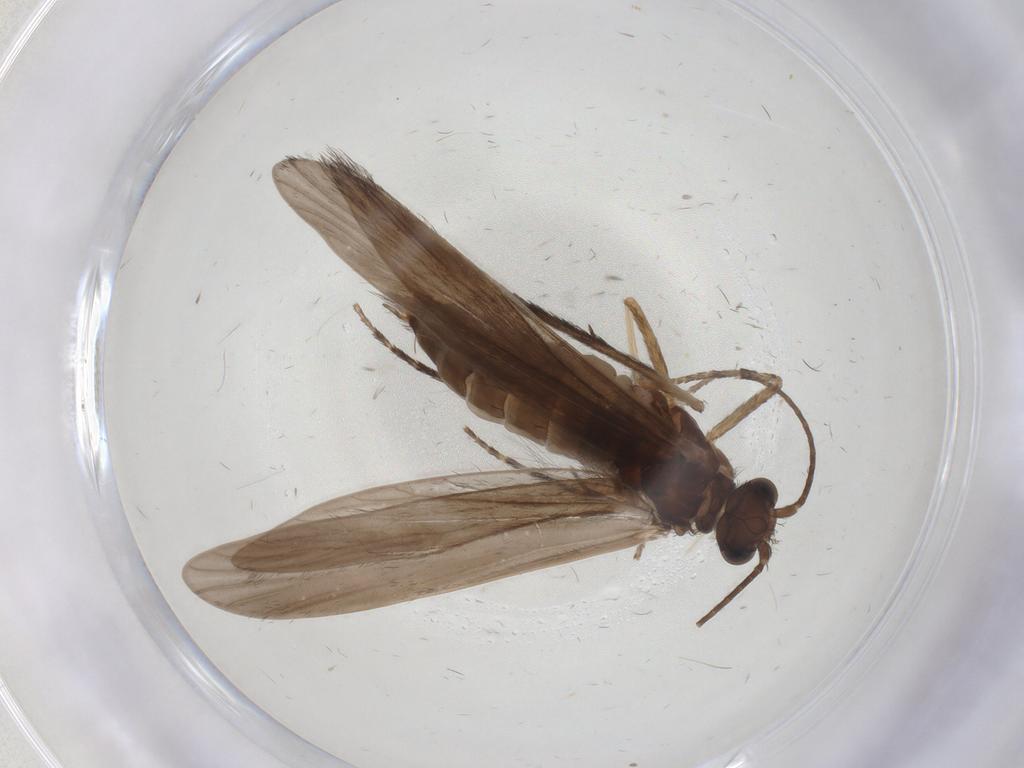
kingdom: Animalia
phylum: Arthropoda
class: Insecta
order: Trichoptera
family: Xiphocentronidae
